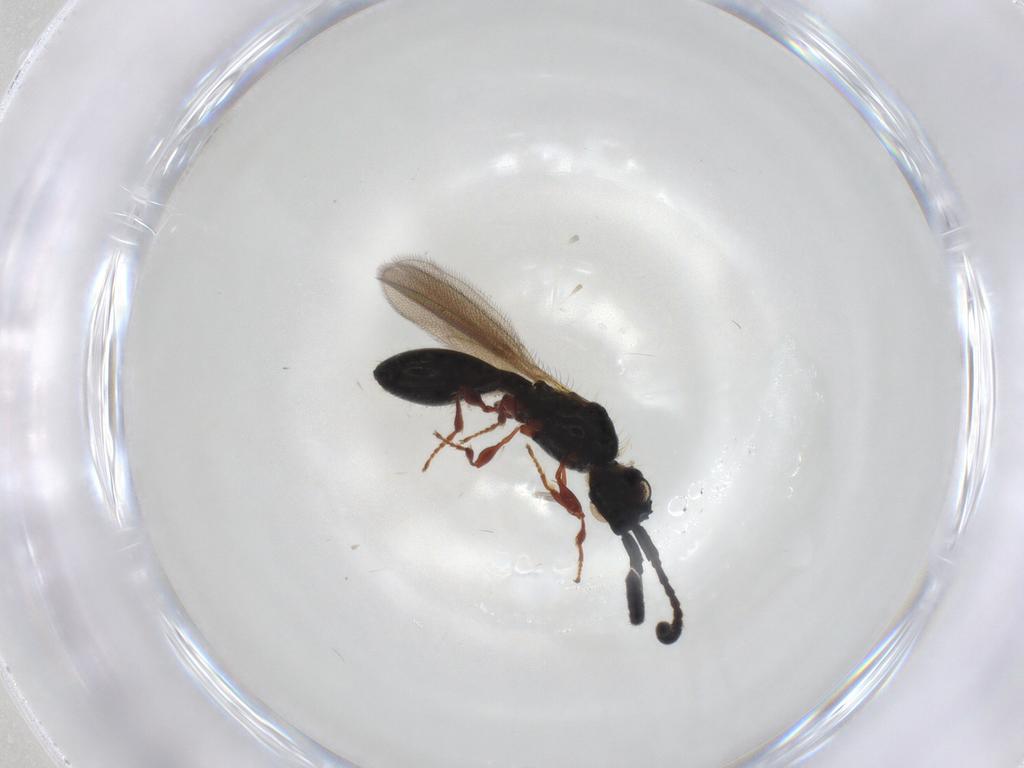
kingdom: Animalia
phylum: Arthropoda
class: Insecta
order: Hymenoptera
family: Diapriidae
